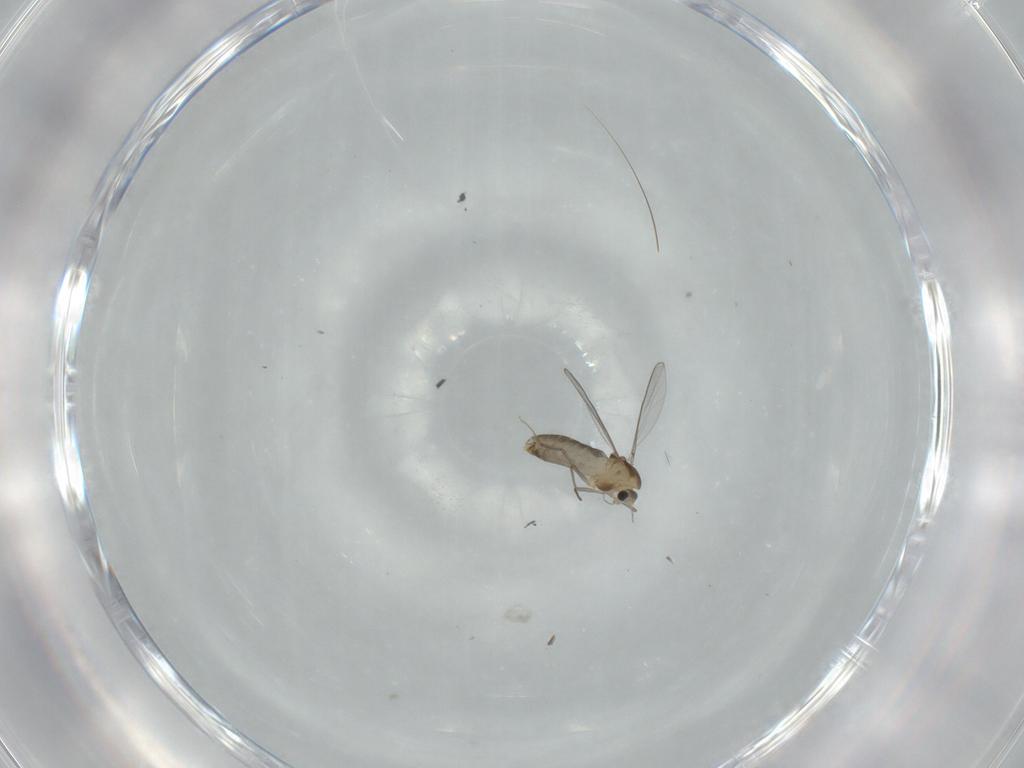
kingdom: Animalia
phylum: Arthropoda
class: Insecta
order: Diptera
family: Chironomidae
